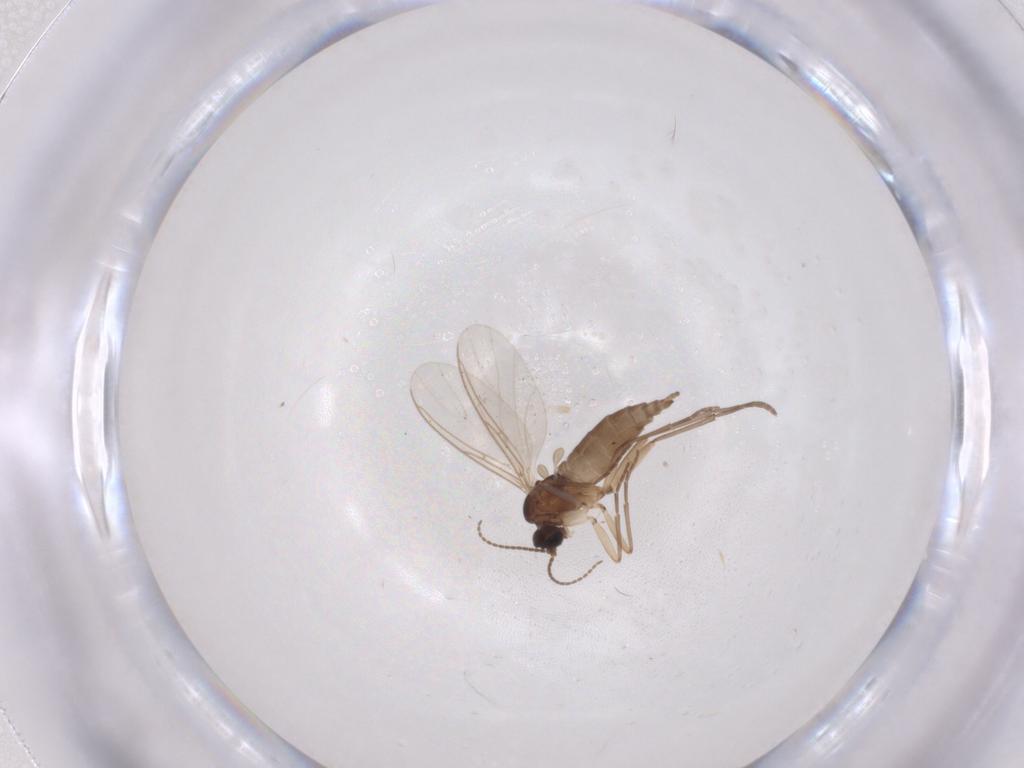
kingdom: Animalia
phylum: Arthropoda
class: Insecta
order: Diptera
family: Sciaridae
